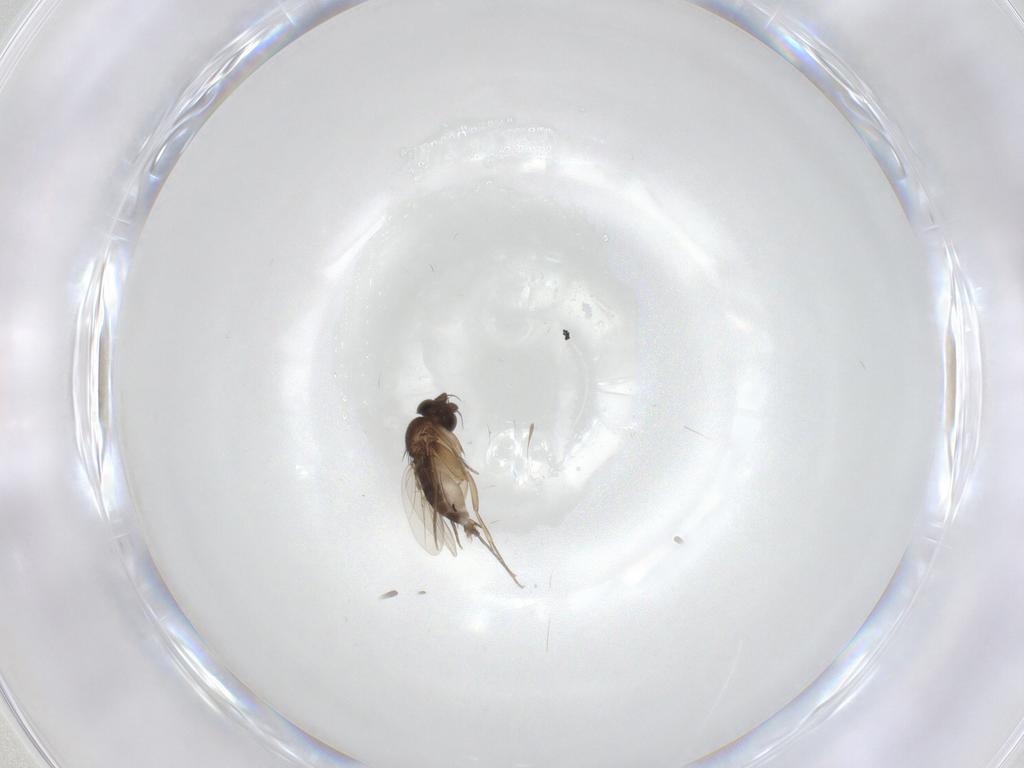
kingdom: Animalia
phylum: Arthropoda
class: Insecta
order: Diptera
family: Phoridae
